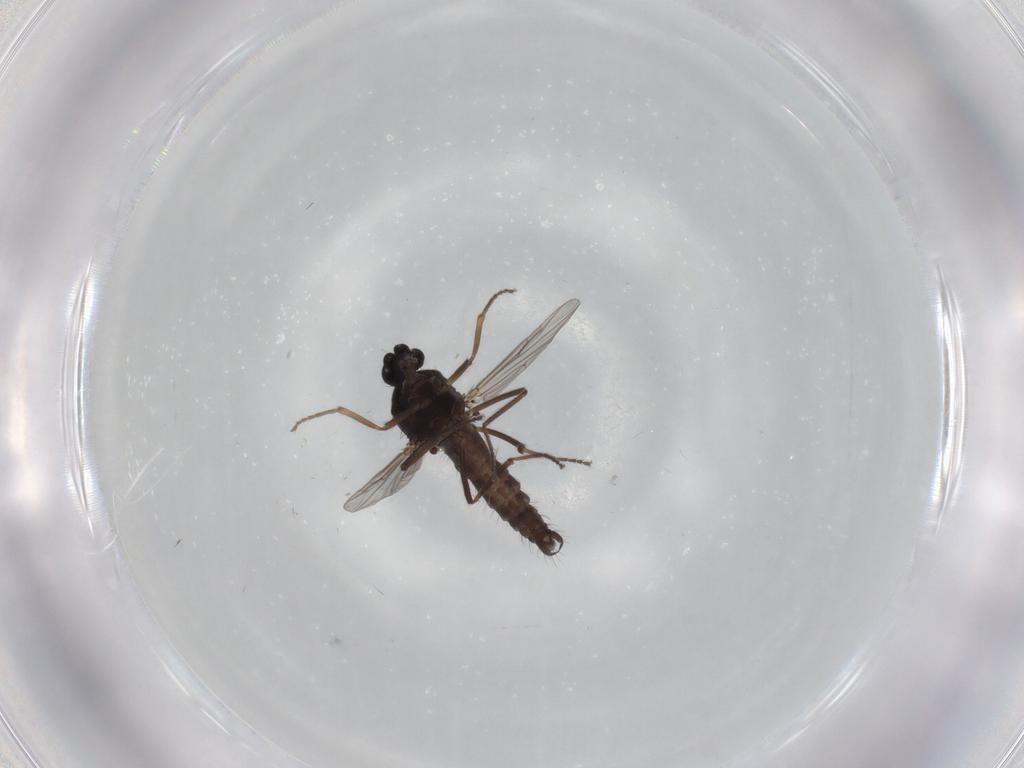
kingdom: Animalia
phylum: Arthropoda
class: Insecta
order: Diptera
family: Ceratopogonidae
